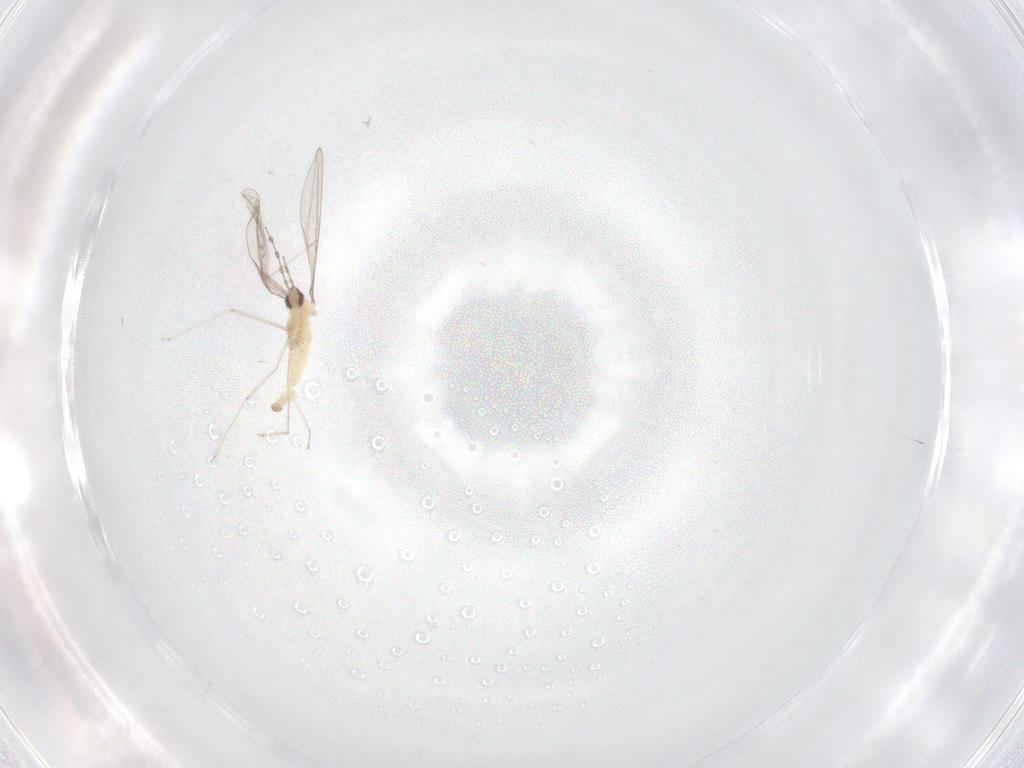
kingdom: Animalia
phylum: Arthropoda
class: Insecta
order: Diptera
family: Cecidomyiidae
